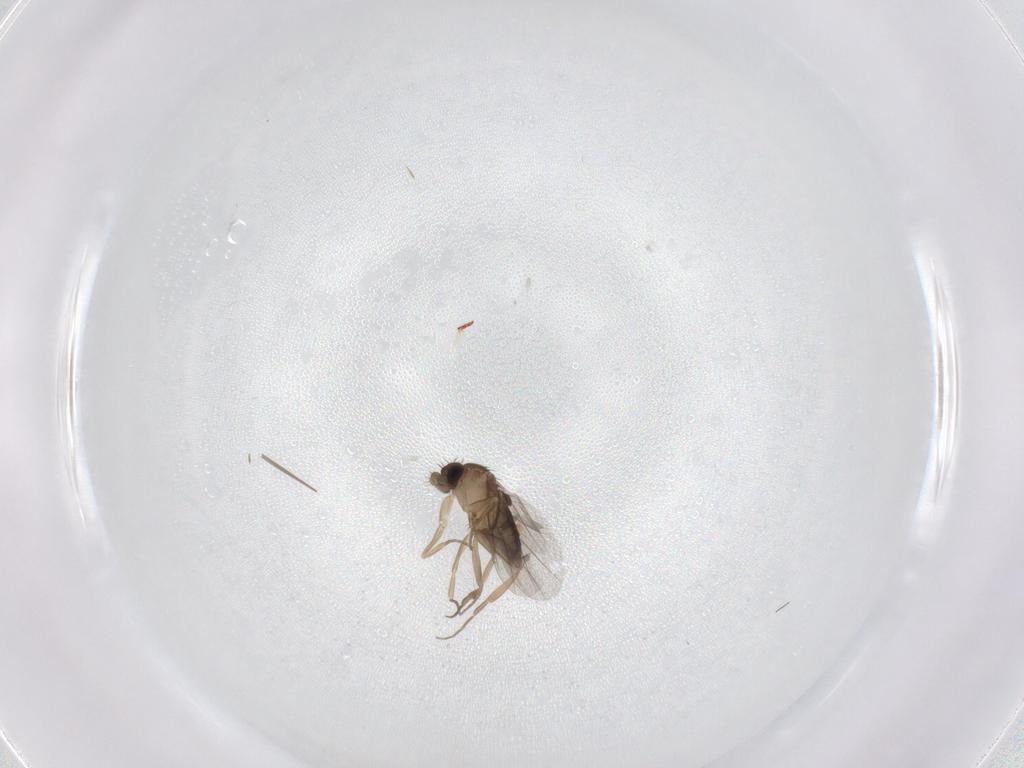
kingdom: Animalia
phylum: Arthropoda
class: Insecta
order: Diptera
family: Phoridae
